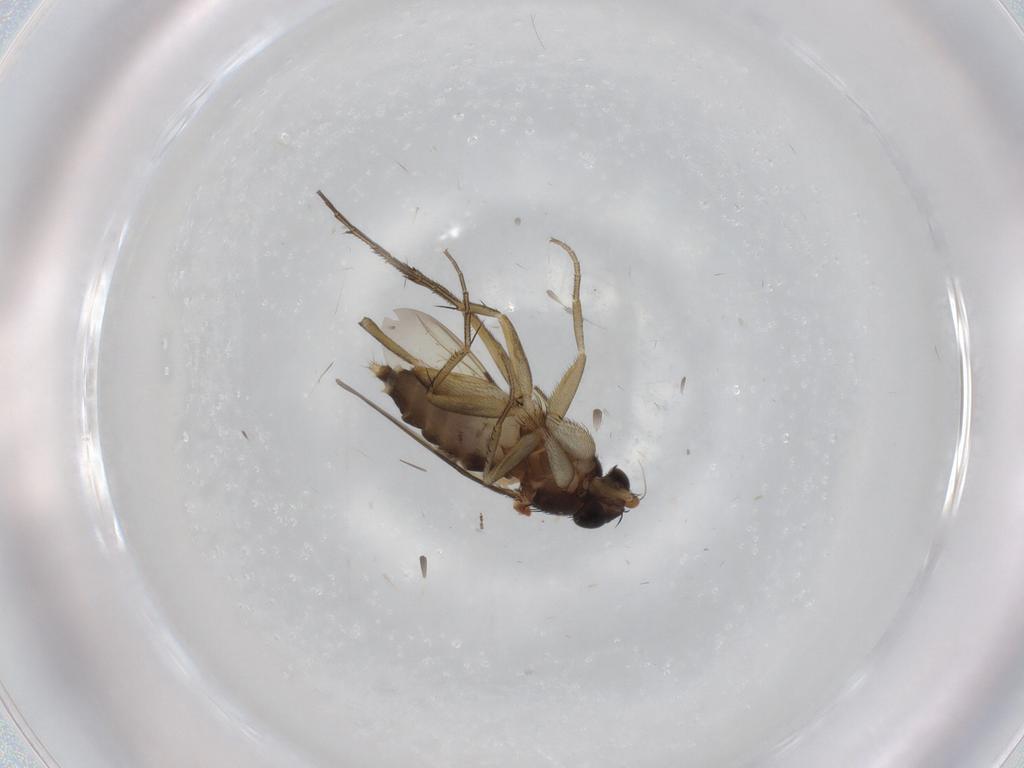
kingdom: Animalia
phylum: Arthropoda
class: Insecta
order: Diptera
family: Phoridae
